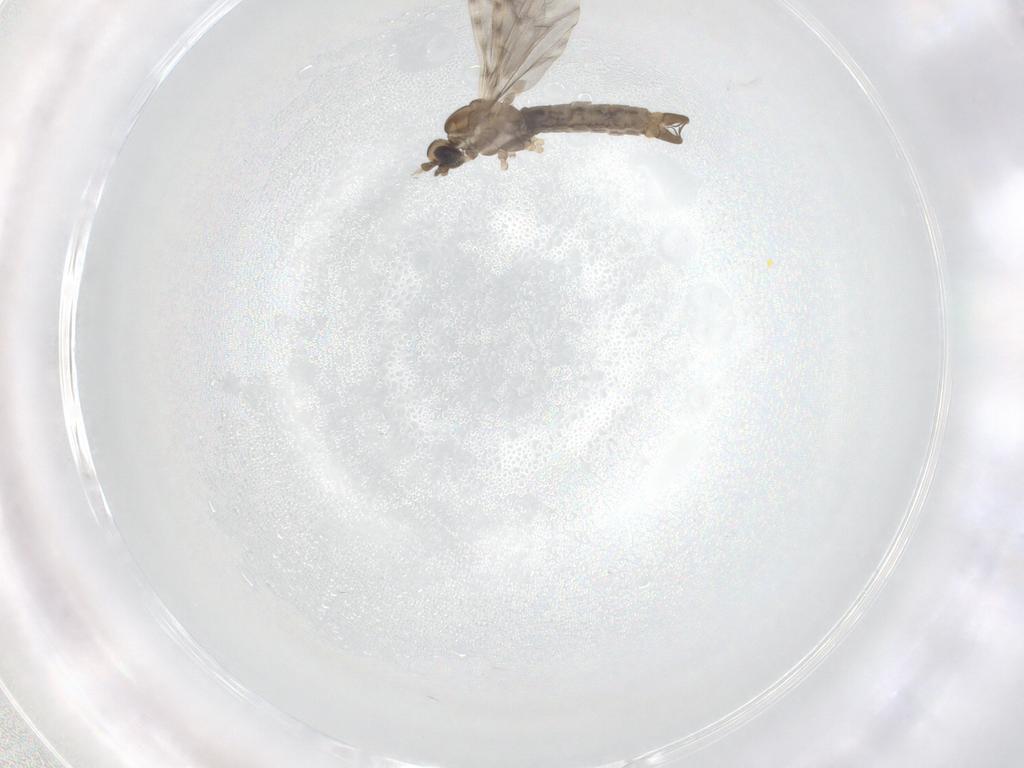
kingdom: Animalia
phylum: Arthropoda
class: Insecta
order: Diptera
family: Limoniidae
